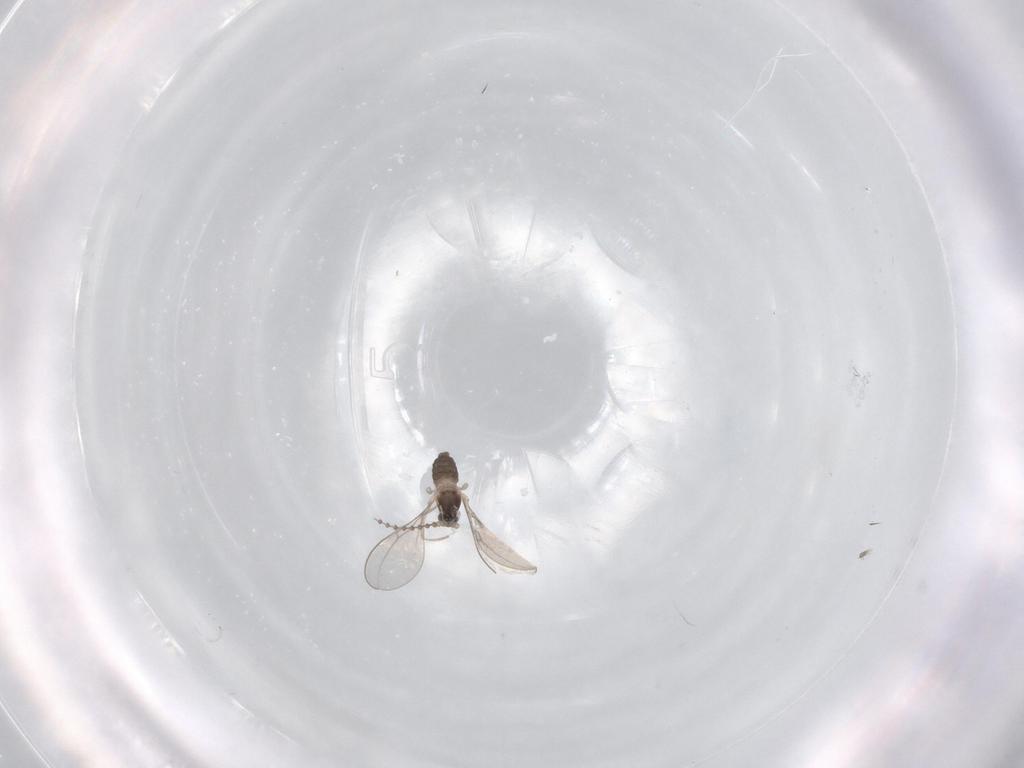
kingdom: Animalia
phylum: Arthropoda
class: Insecta
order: Diptera
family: Cecidomyiidae
